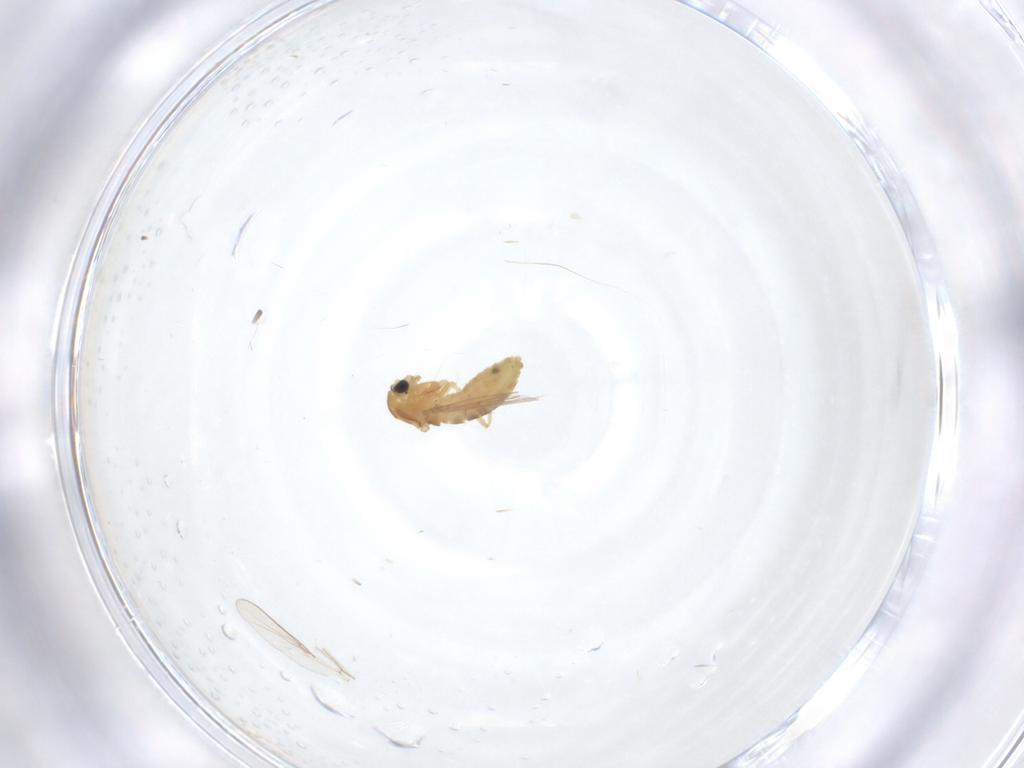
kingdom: Animalia
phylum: Arthropoda
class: Insecta
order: Diptera
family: Chironomidae
